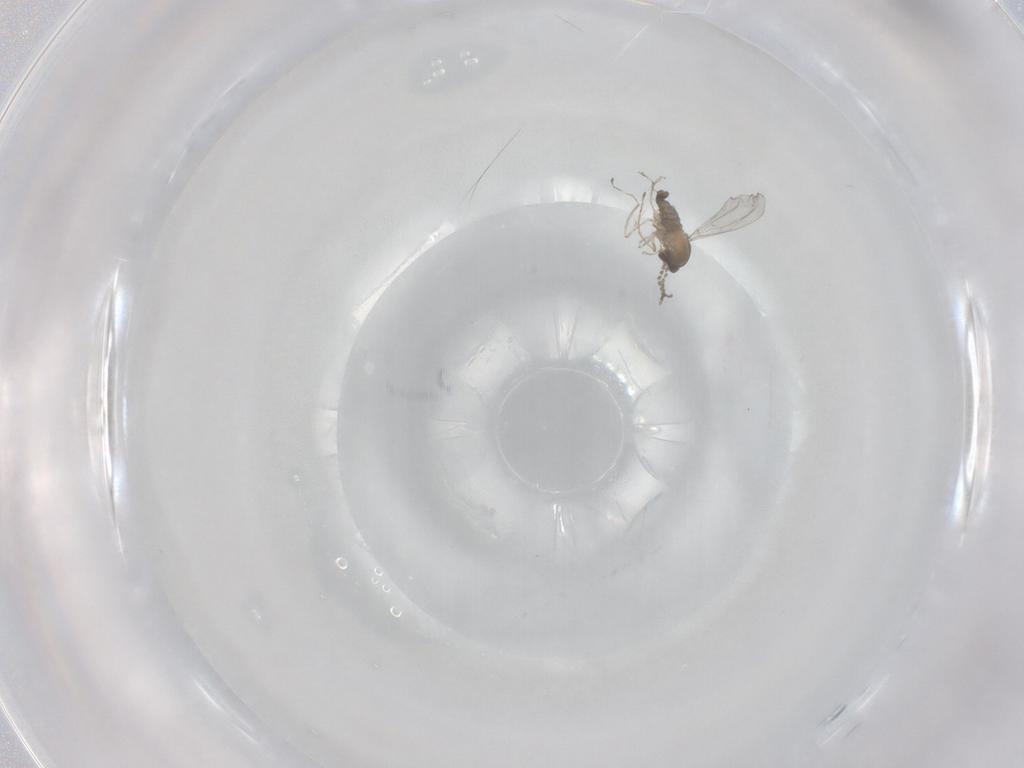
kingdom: Animalia
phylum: Arthropoda
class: Insecta
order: Diptera
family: Cecidomyiidae
